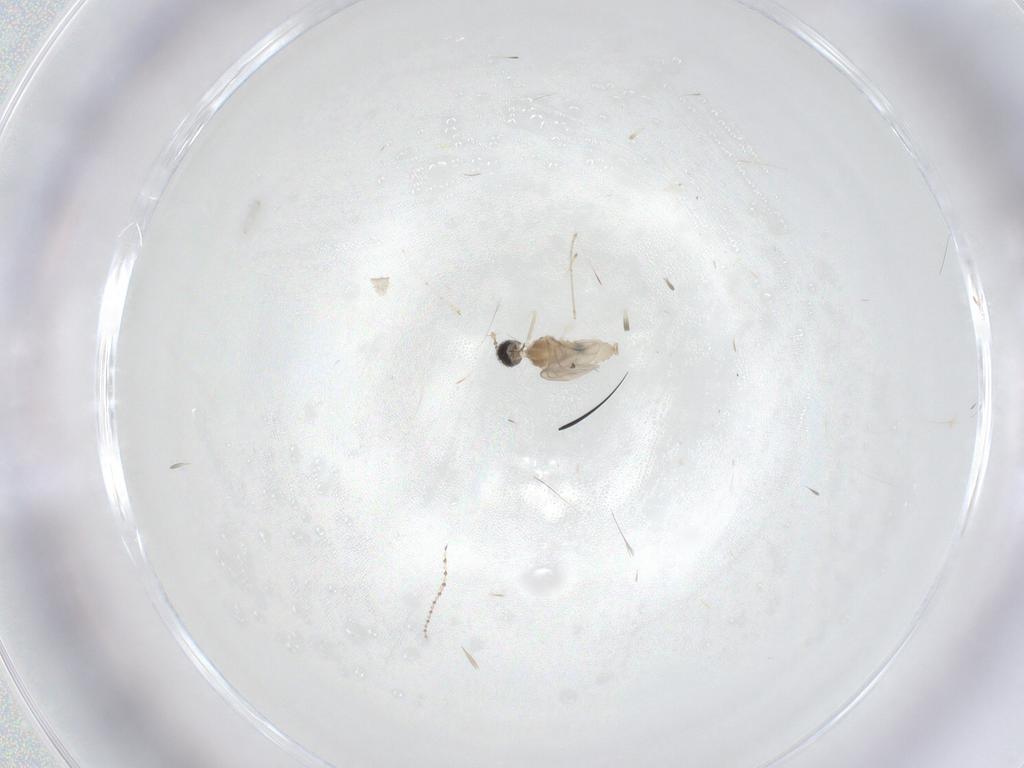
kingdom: Animalia
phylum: Arthropoda
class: Insecta
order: Diptera
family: Cecidomyiidae
